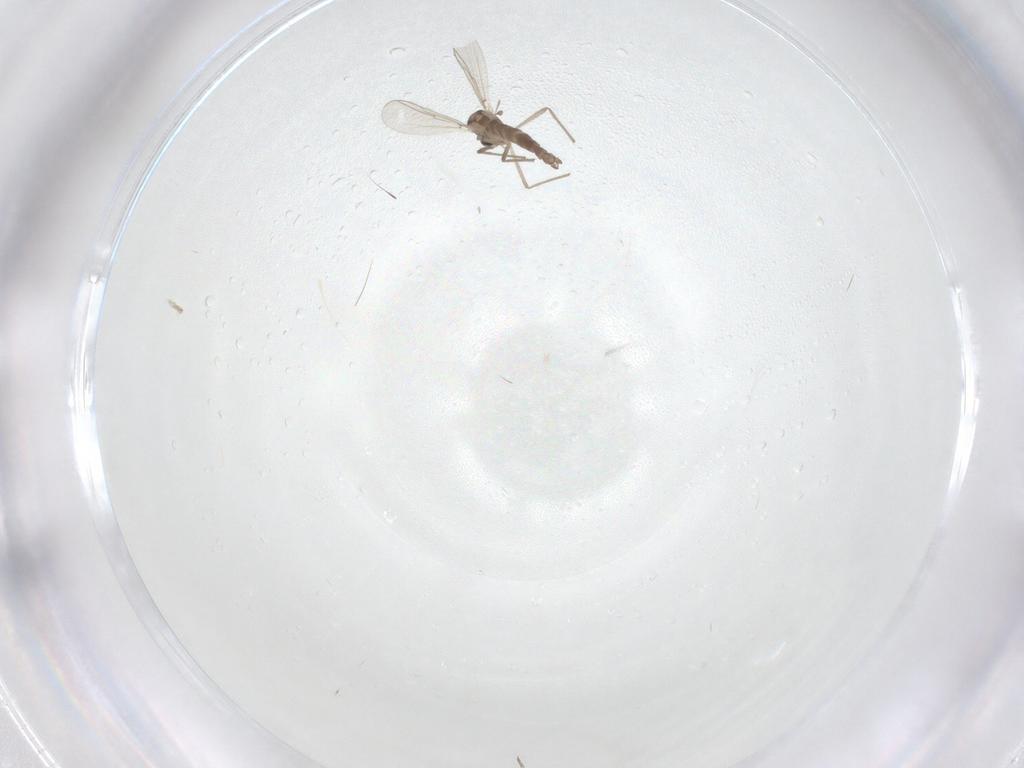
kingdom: Animalia
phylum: Arthropoda
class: Insecta
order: Diptera
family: Chironomidae
